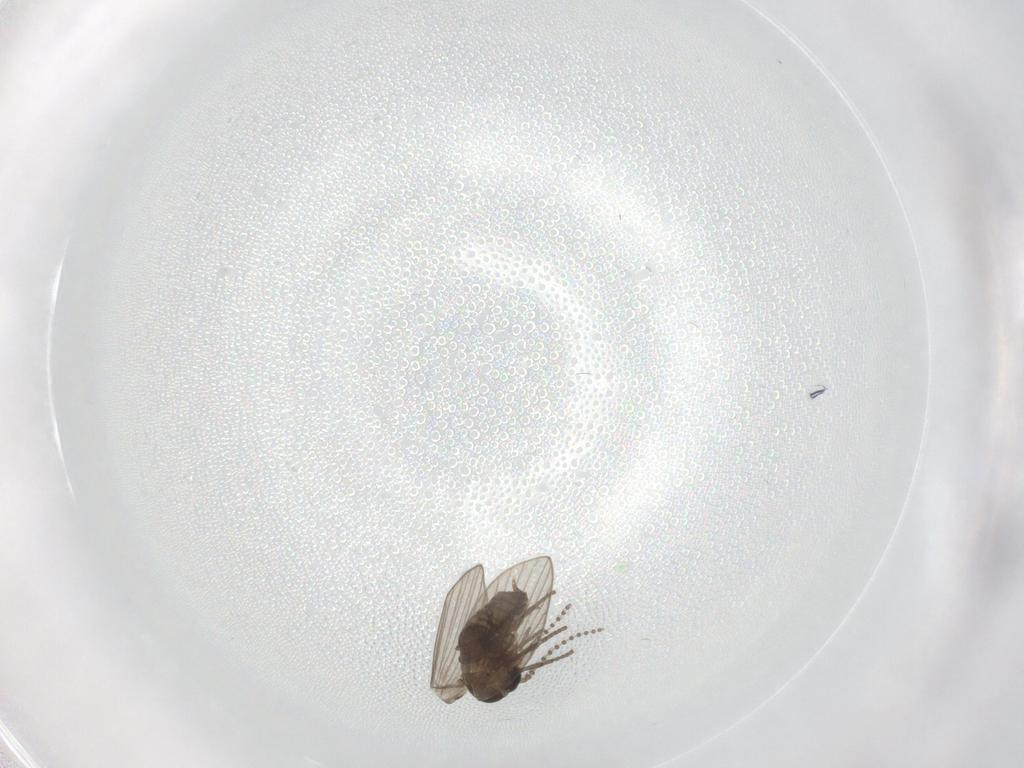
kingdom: Animalia
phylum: Arthropoda
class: Insecta
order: Diptera
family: Psychodidae
